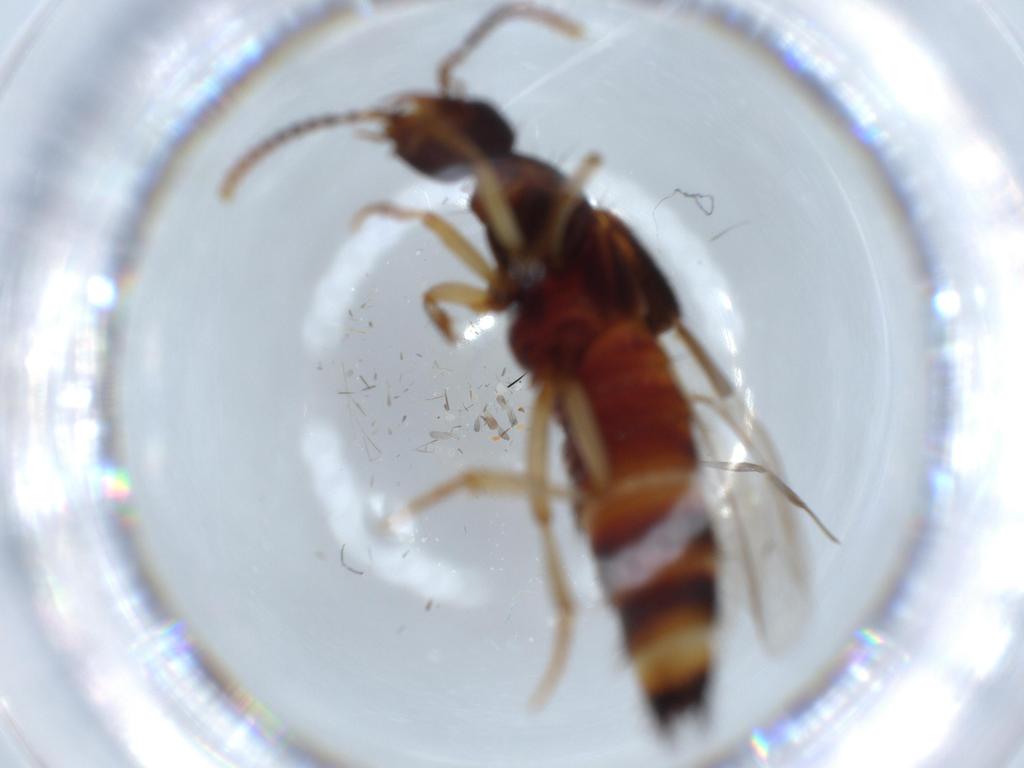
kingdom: Animalia
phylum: Arthropoda
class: Insecta
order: Coleoptera
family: Staphylinidae
